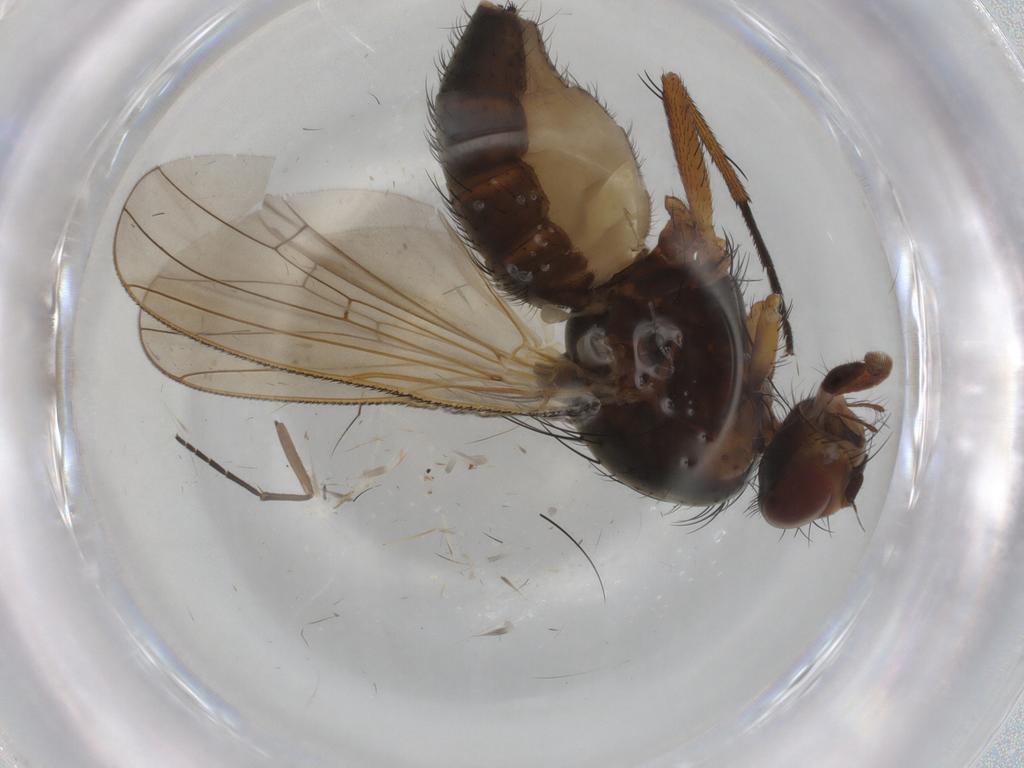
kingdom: Animalia
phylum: Arthropoda
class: Insecta
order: Diptera
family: Anthomyiidae
